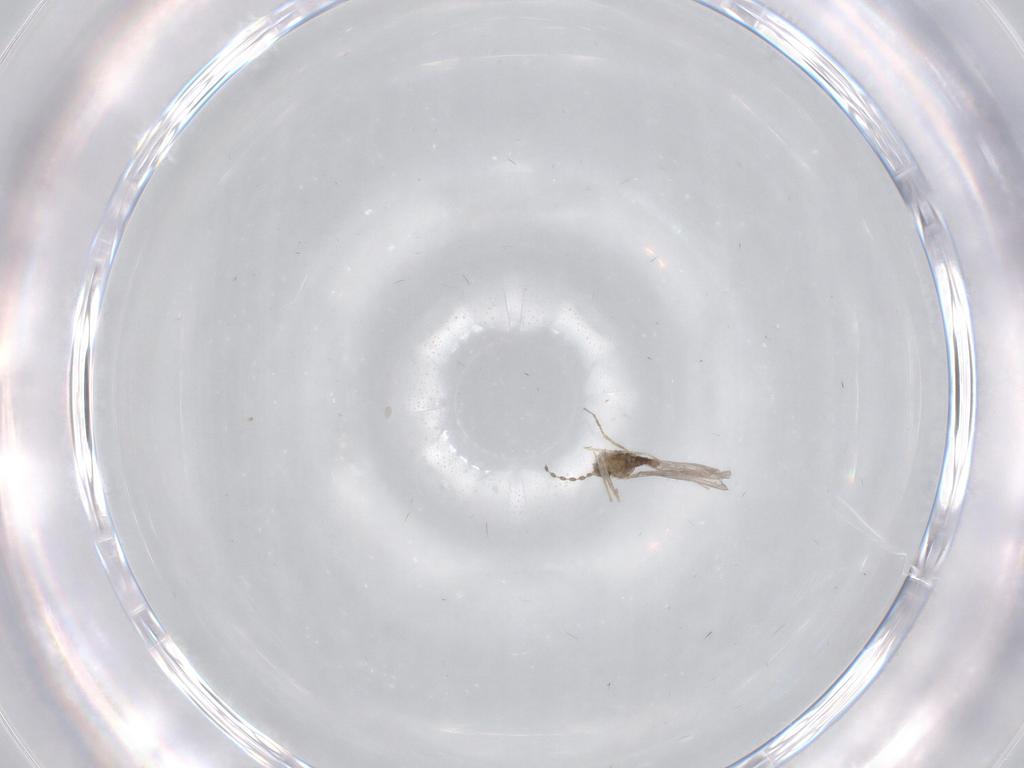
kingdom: Animalia
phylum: Arthropoda
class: Insecta
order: Diptera
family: Cecidomyiidae
